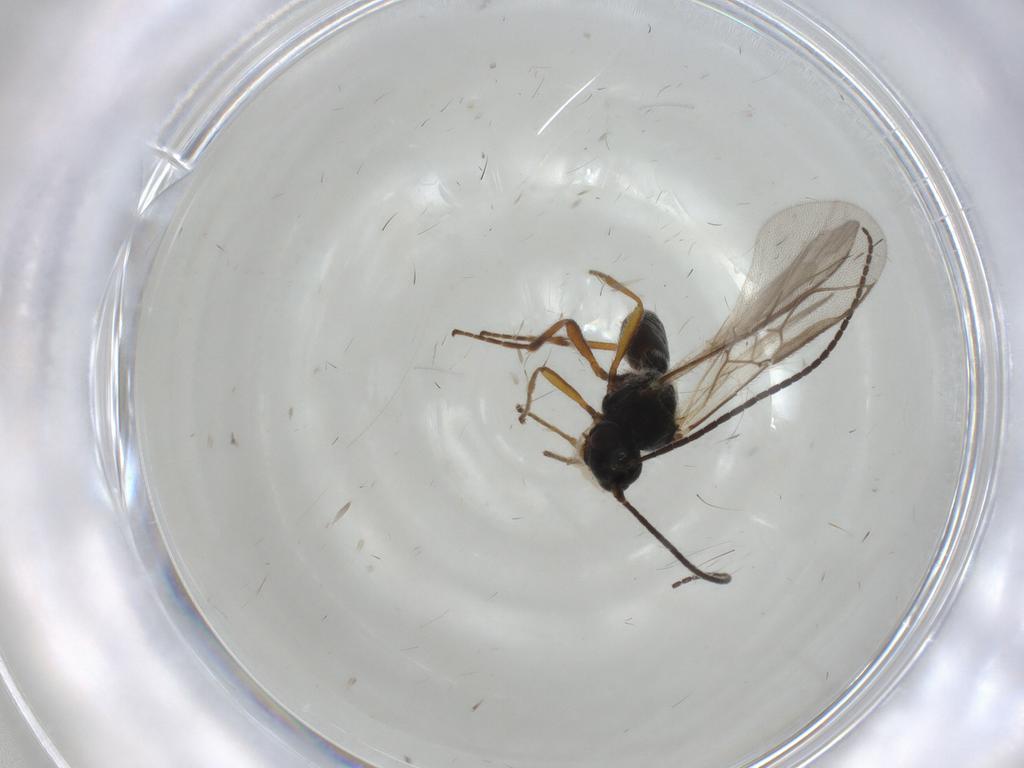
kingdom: Animalia
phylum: Arthropoda
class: Insecta
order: Hymenoptera
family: Braconidae
